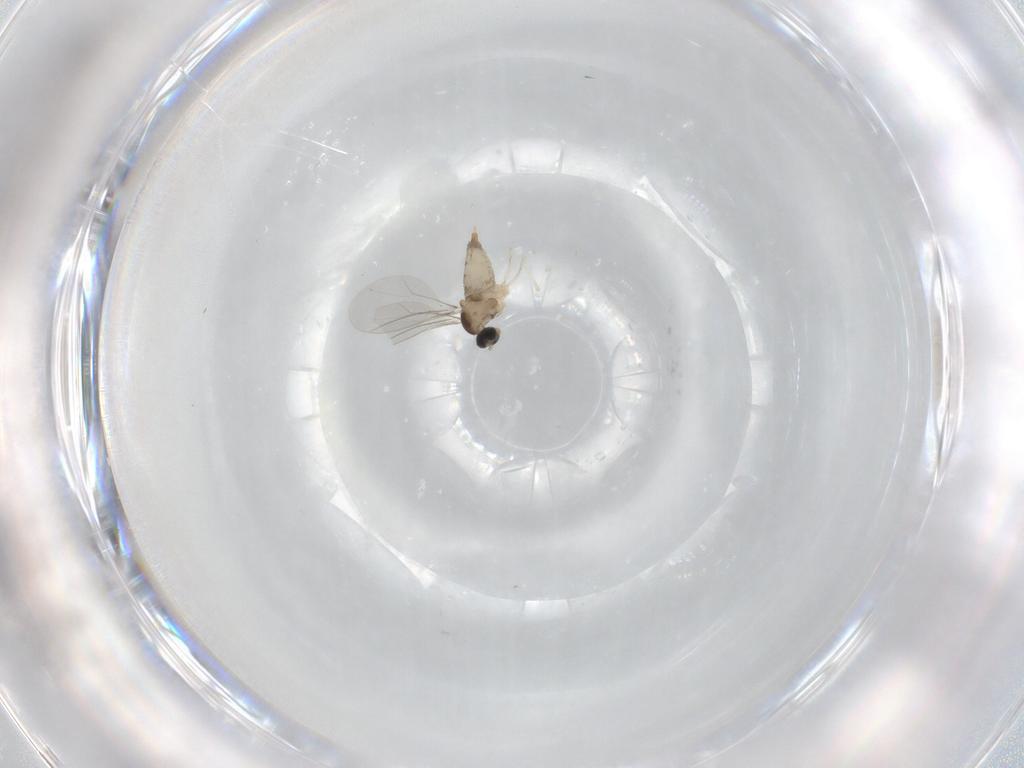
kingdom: Animalia
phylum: Arthropoda
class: Insecta
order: Diptera
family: Cecidomyiidae
